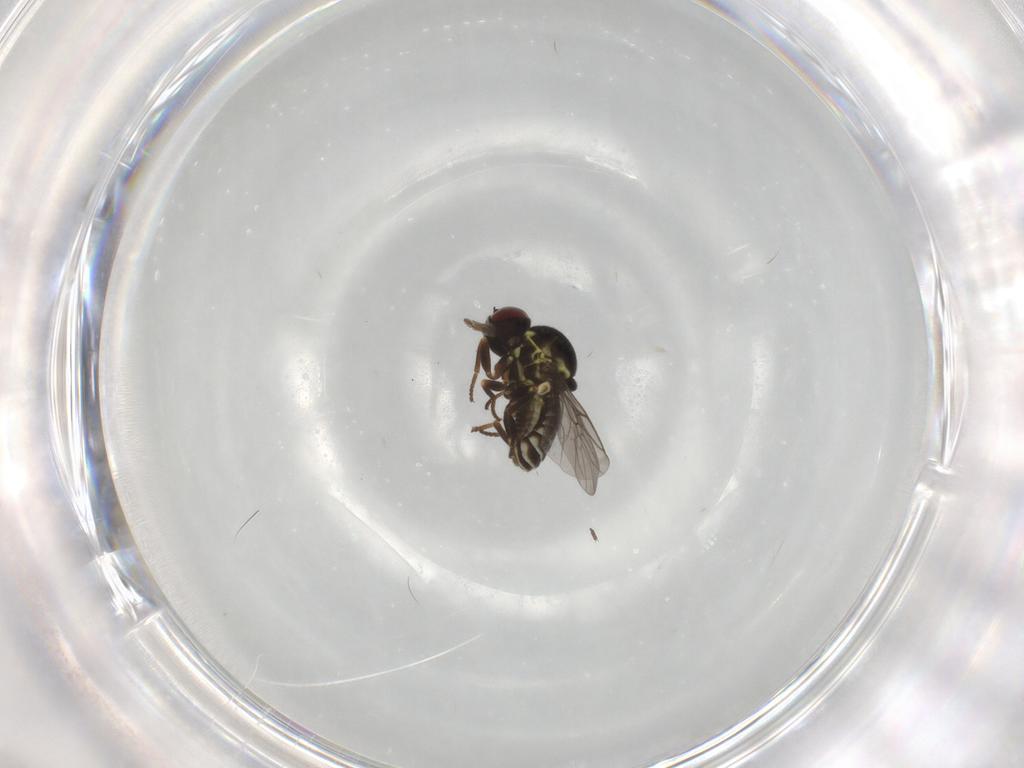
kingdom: Animalia
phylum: Arthropoda
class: Insecta
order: Diptera
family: Bombyliidae
